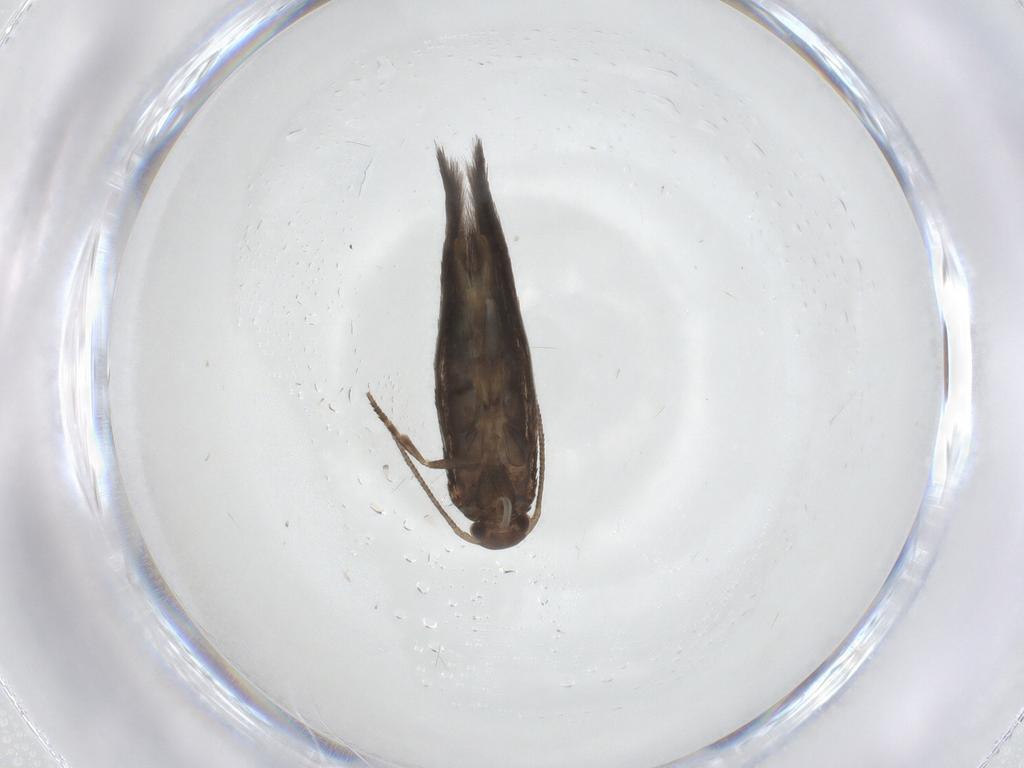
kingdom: Animalia
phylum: Arthropoda
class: Insecta
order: Lepidoptera
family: Elachistidae
